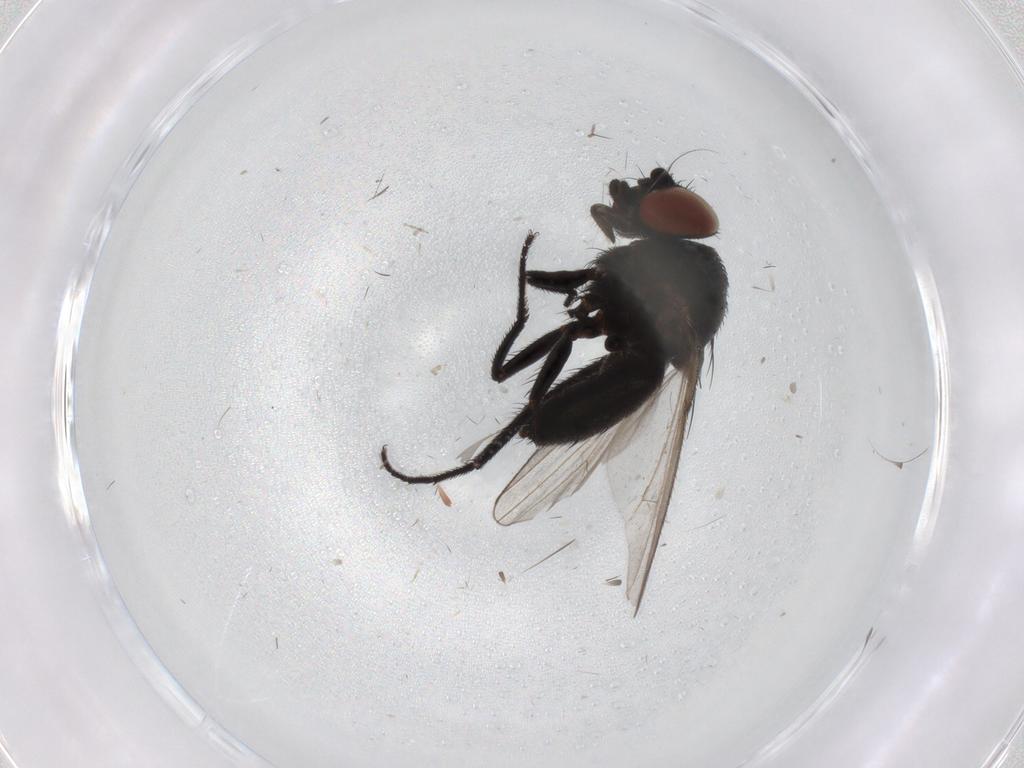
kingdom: Animalia
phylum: Arthropoda
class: Insecta
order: Diptera
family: Milichiidae
